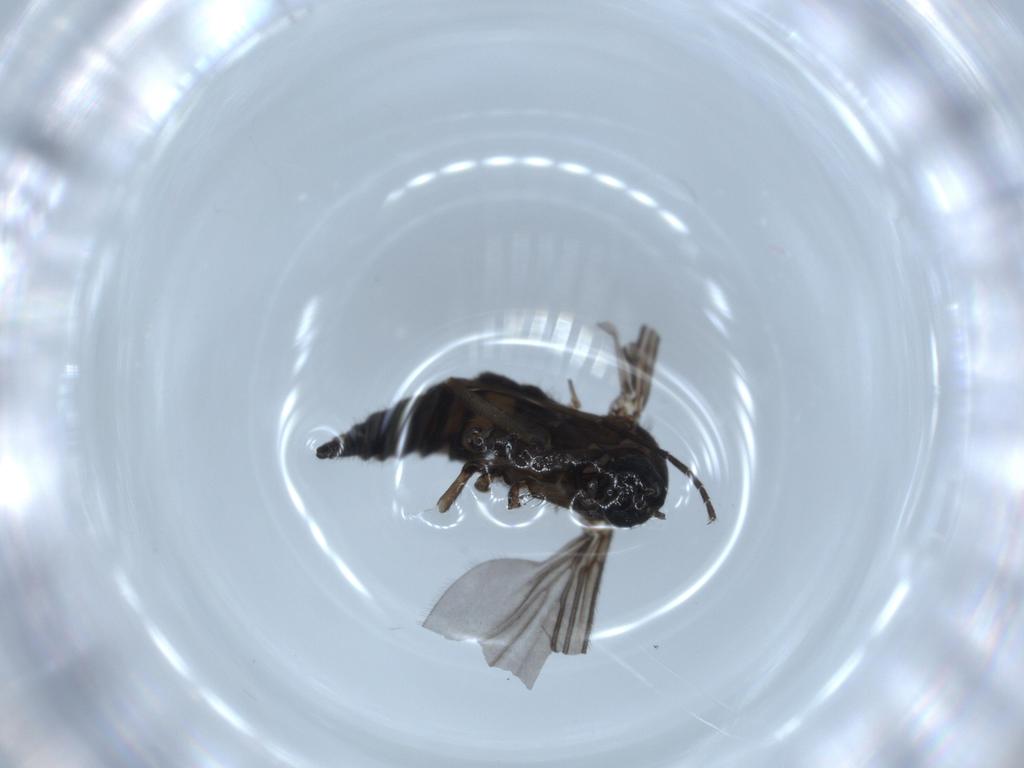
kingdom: Animalia
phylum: Arthropoda
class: Insecta
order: Diptera
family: Sciaridae
